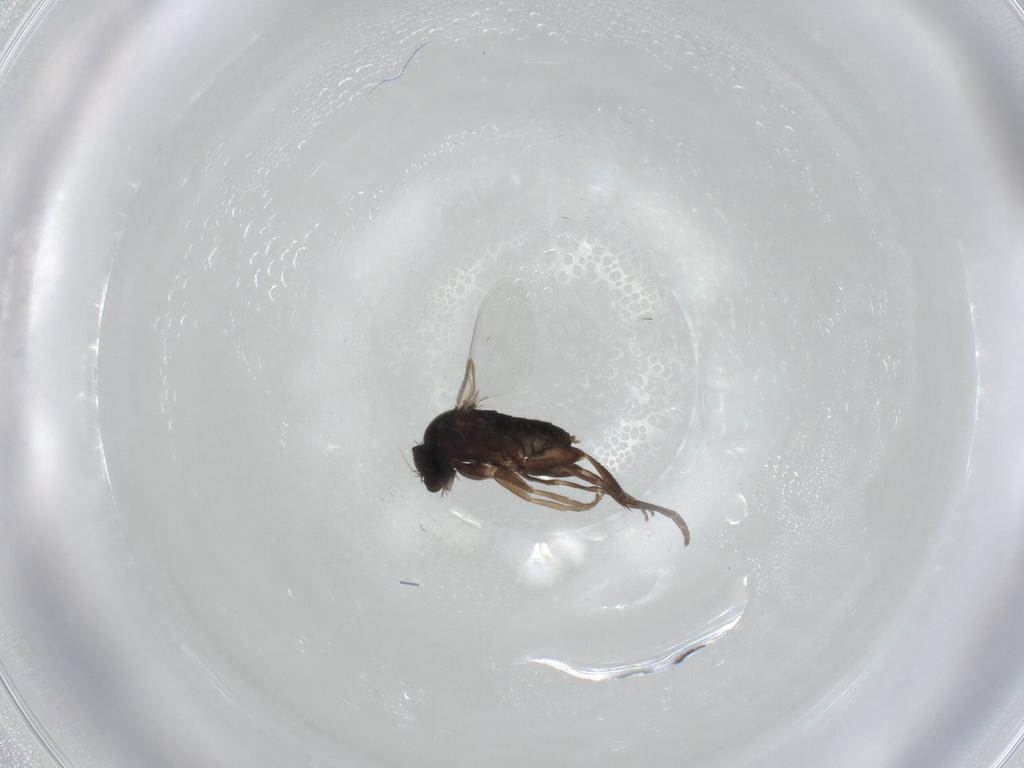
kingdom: Animalia
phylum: Arthropoda
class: Insecta
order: Diptera
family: Phoridae
